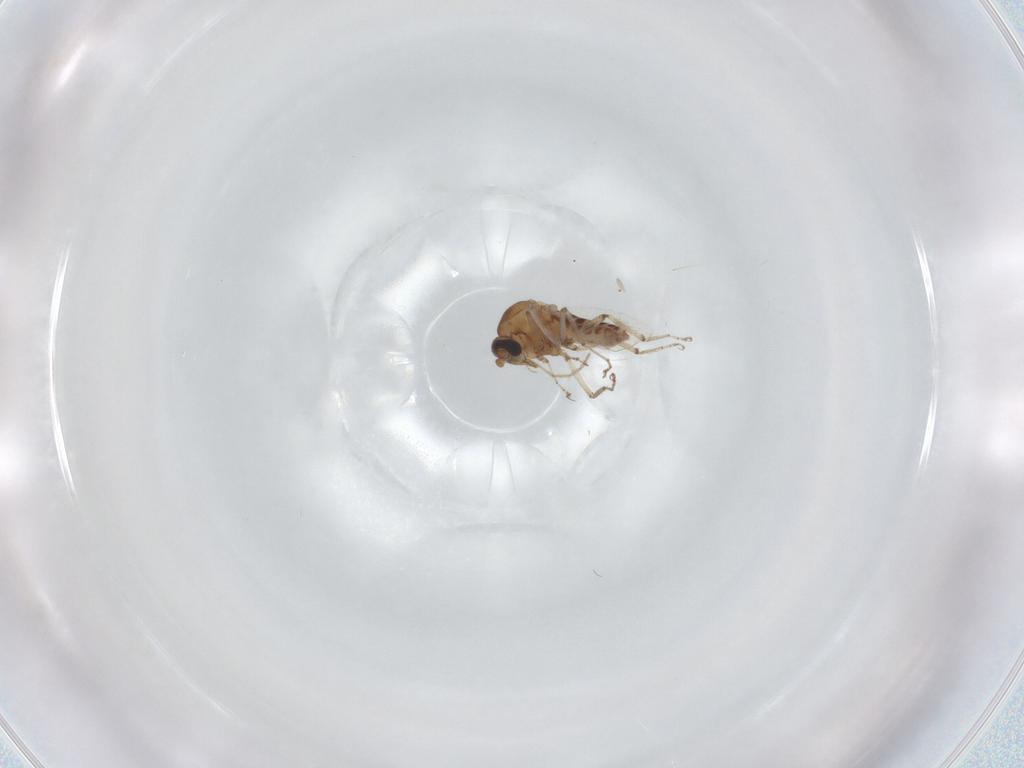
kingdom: Animalia
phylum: Arthropoda
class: Insecta
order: Diptera
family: Ceratopogonidae
